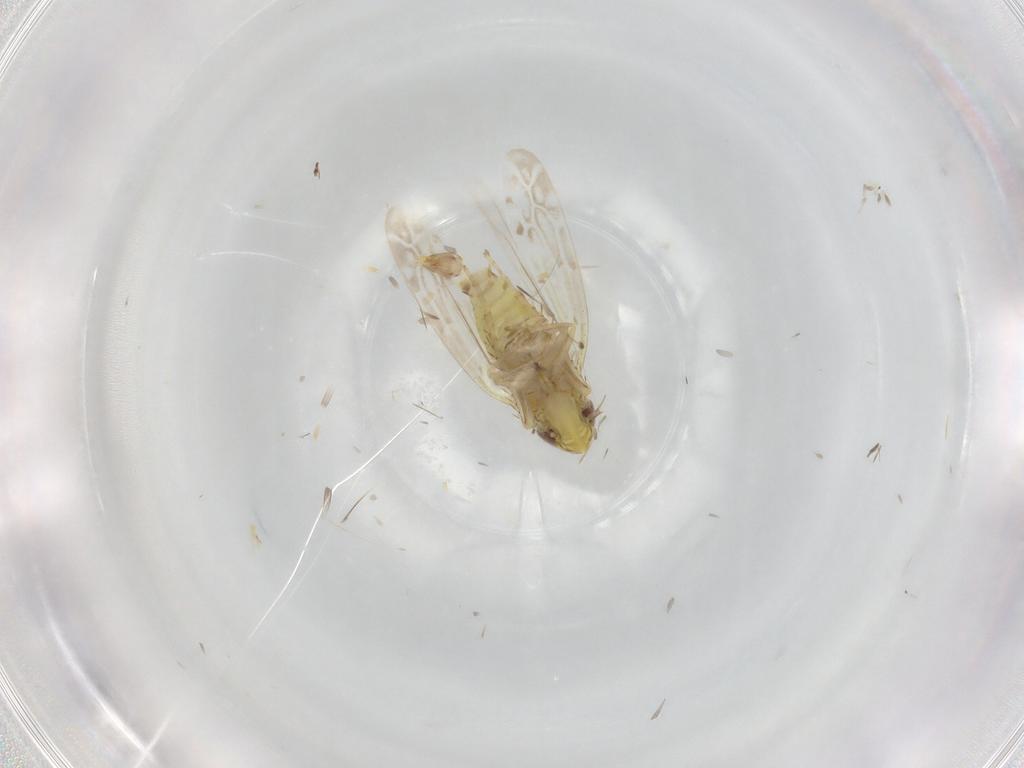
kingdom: Animalia
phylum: Arthropoda
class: Insecta
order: Hemiptera
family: Cicadellidae
